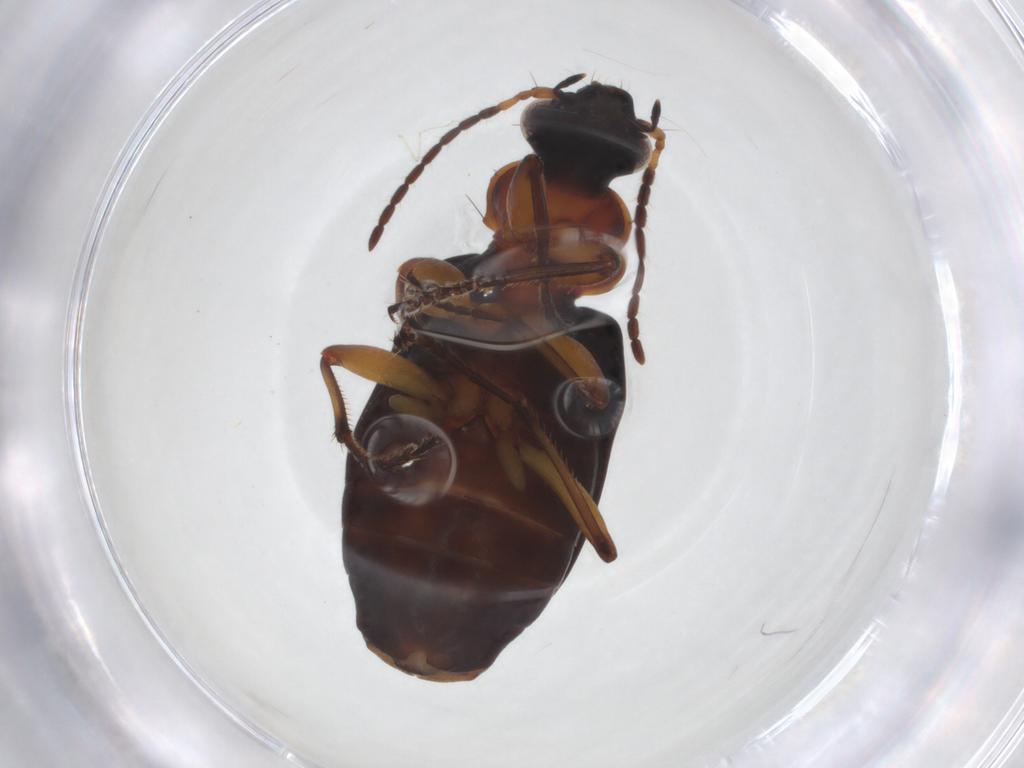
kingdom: Animalia
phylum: Arthropoda
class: Insecta
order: Coleoptera
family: Carabidae
